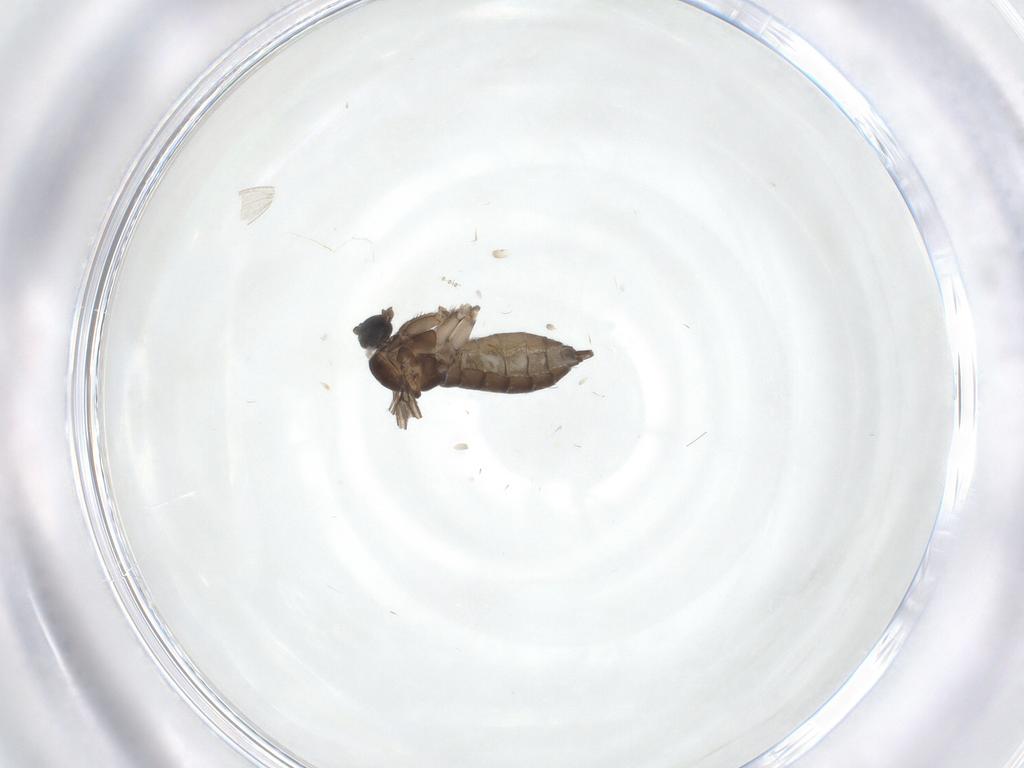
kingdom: Animalia
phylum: Arthropoda
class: Insecta
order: Diptera
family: Sciaridae
